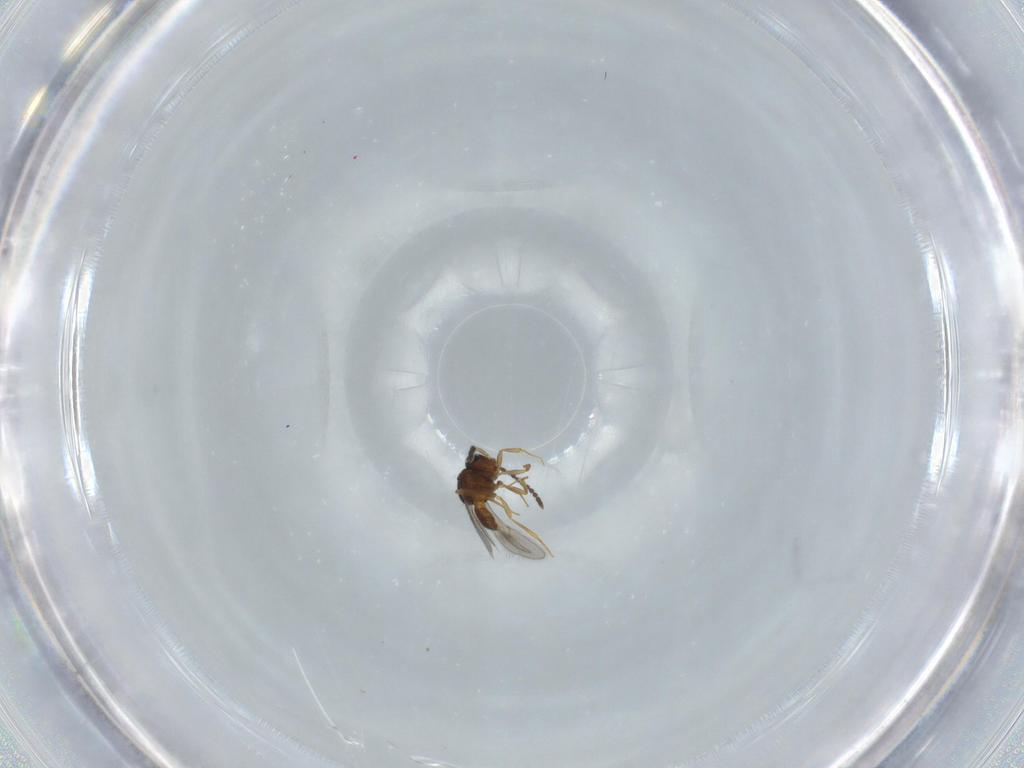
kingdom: Animalia
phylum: Arthropoda
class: Insecta
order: Hymenoptera
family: Scelionidae
